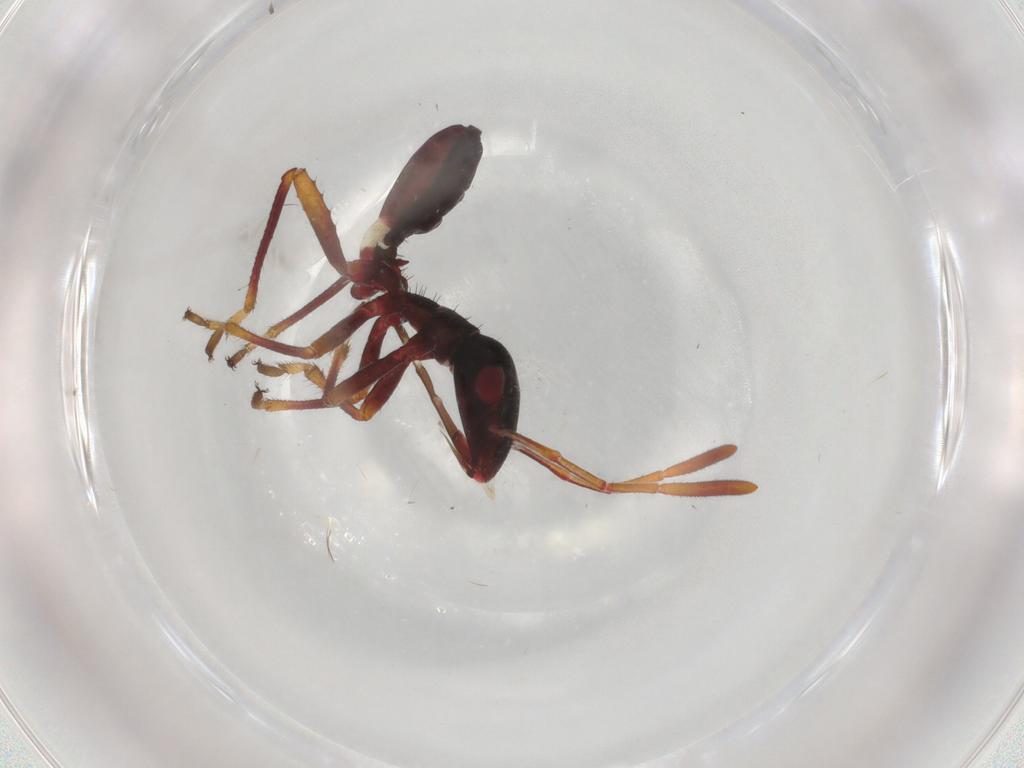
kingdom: Animalia
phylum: Arthropoda
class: Insecta
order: Hemiptera
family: Alydidae
